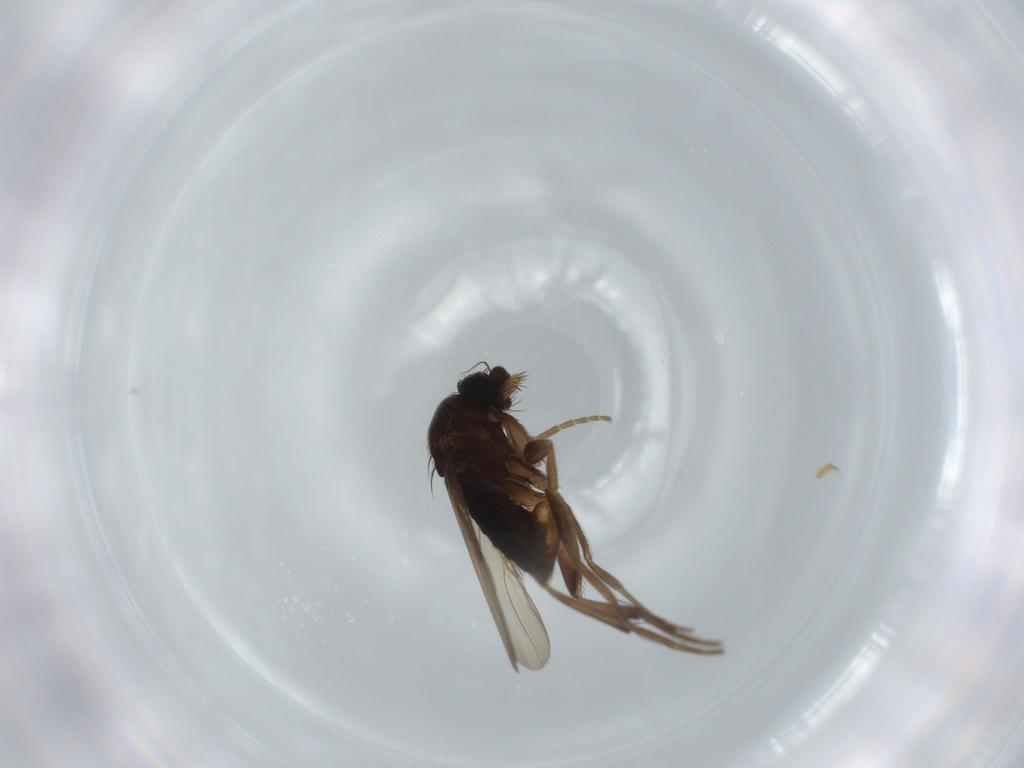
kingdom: Animalia
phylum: Arthropoda
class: Insecta
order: Diptera
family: Phoridae
